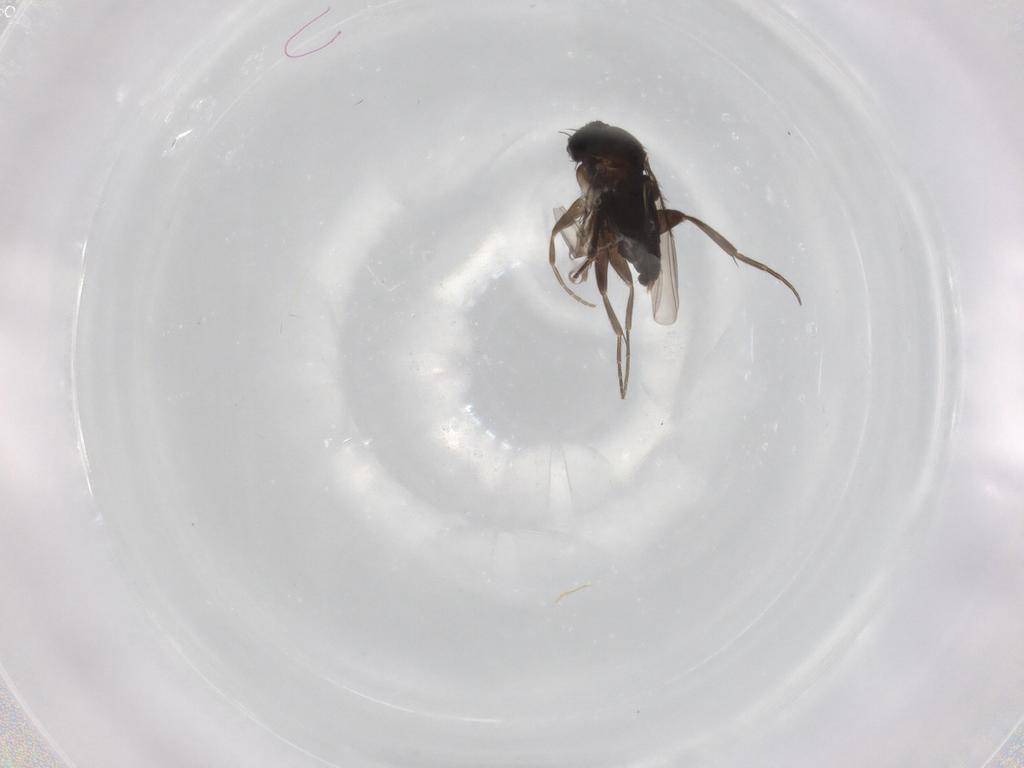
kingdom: Animalia
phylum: Arthropoda
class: Insecta
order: Diptera
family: Phoridae
